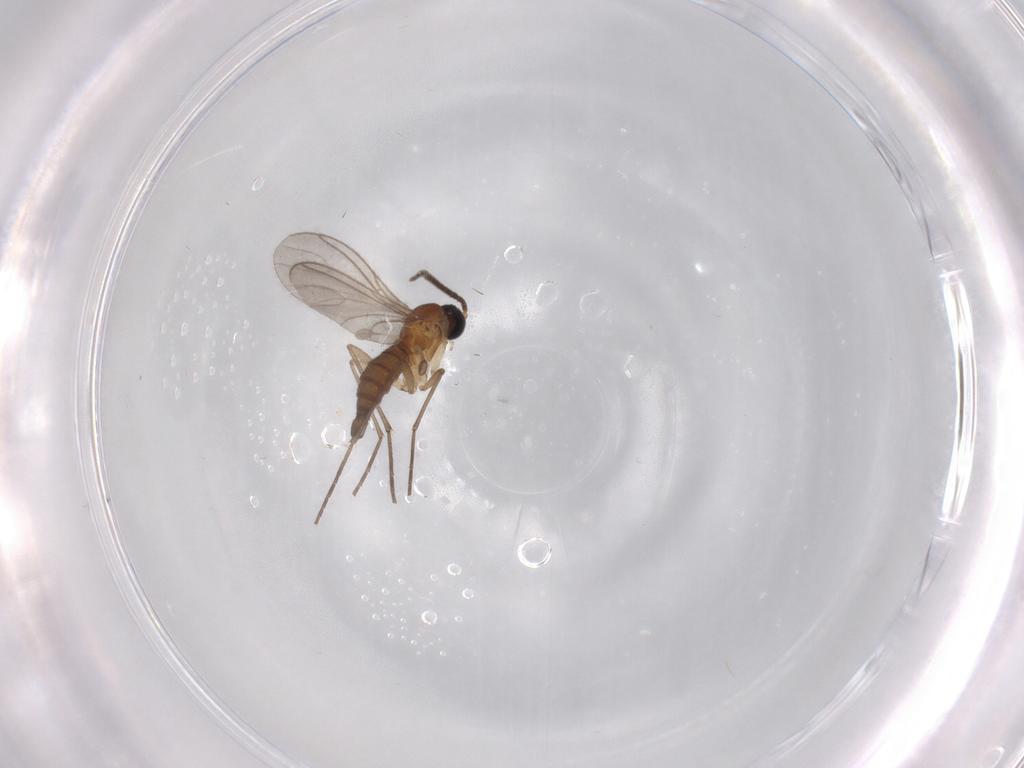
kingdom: Animalia
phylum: Arthropoda
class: Insecta
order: Diptera
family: Sciaridae
